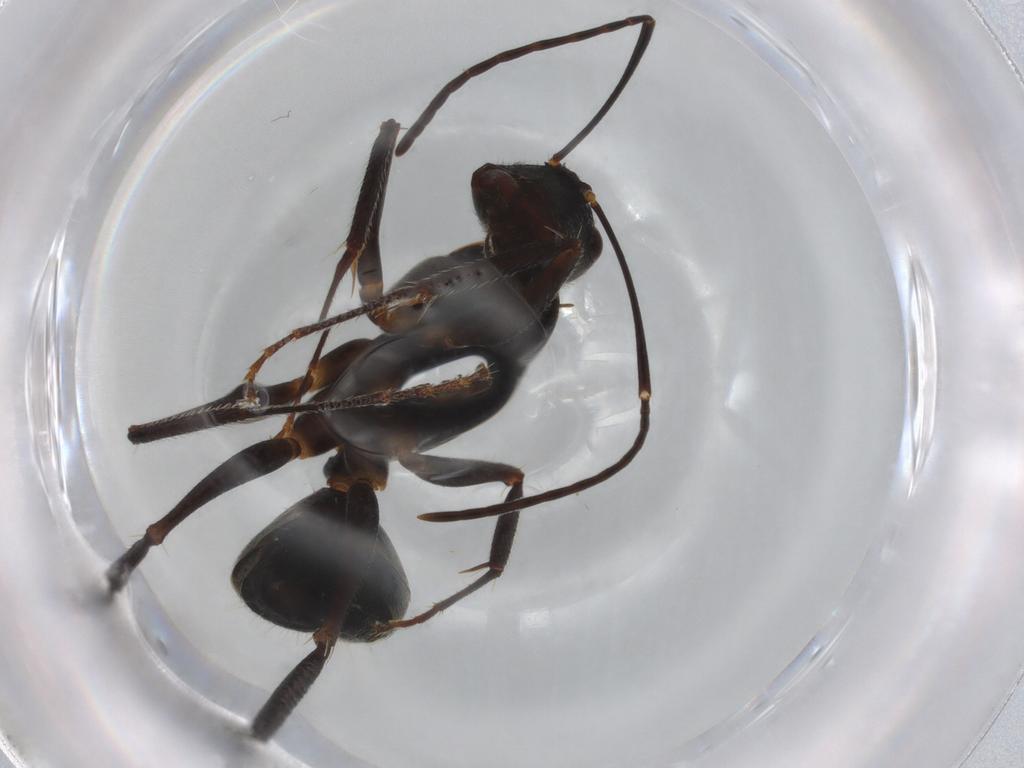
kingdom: Animalia
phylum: Arthropoda
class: Insecta
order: Hymenoptera
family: Formicidae
